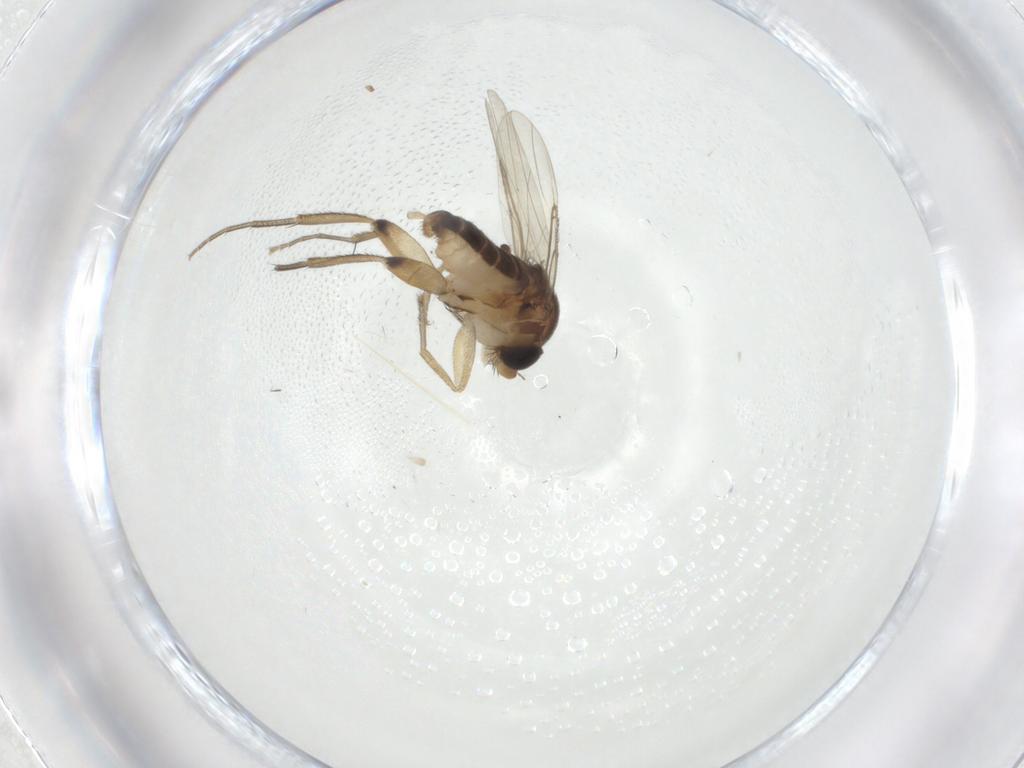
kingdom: Animalia
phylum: Arthropoda
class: Insecta
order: Diptera
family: Phoridae
